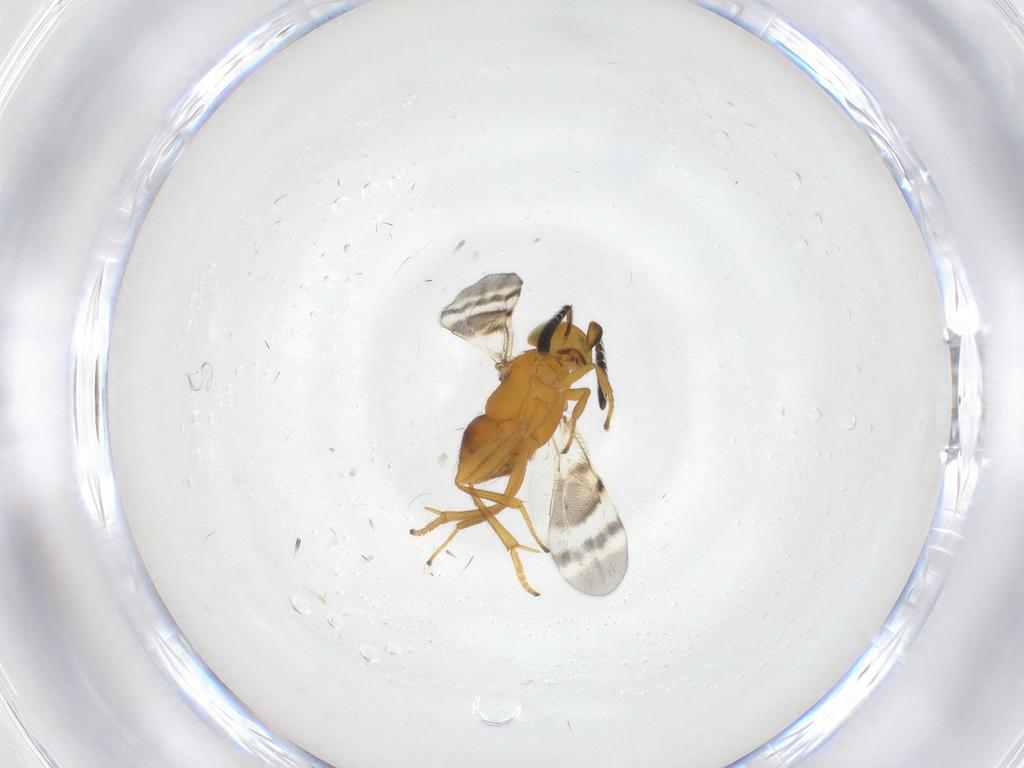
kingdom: Animalia
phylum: Arthropoda
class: Insecta
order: Hymenoptera
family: Encyrtidae
